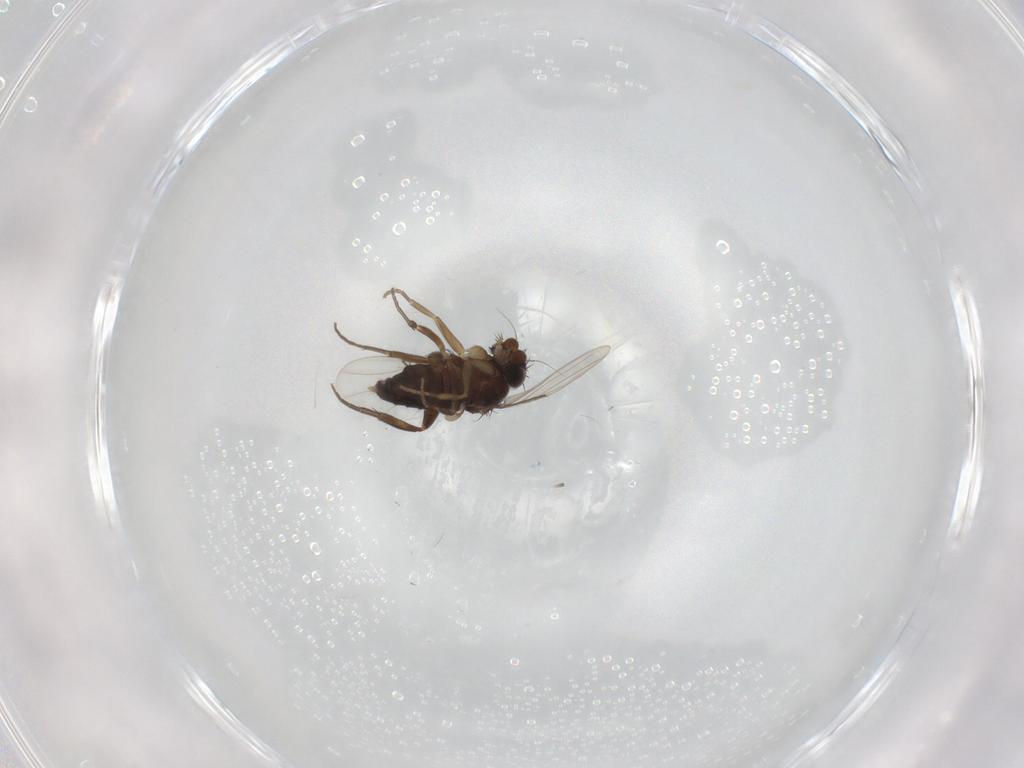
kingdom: Animalia
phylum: Arthropoda
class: Insecta
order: Diptera
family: Phoridae
